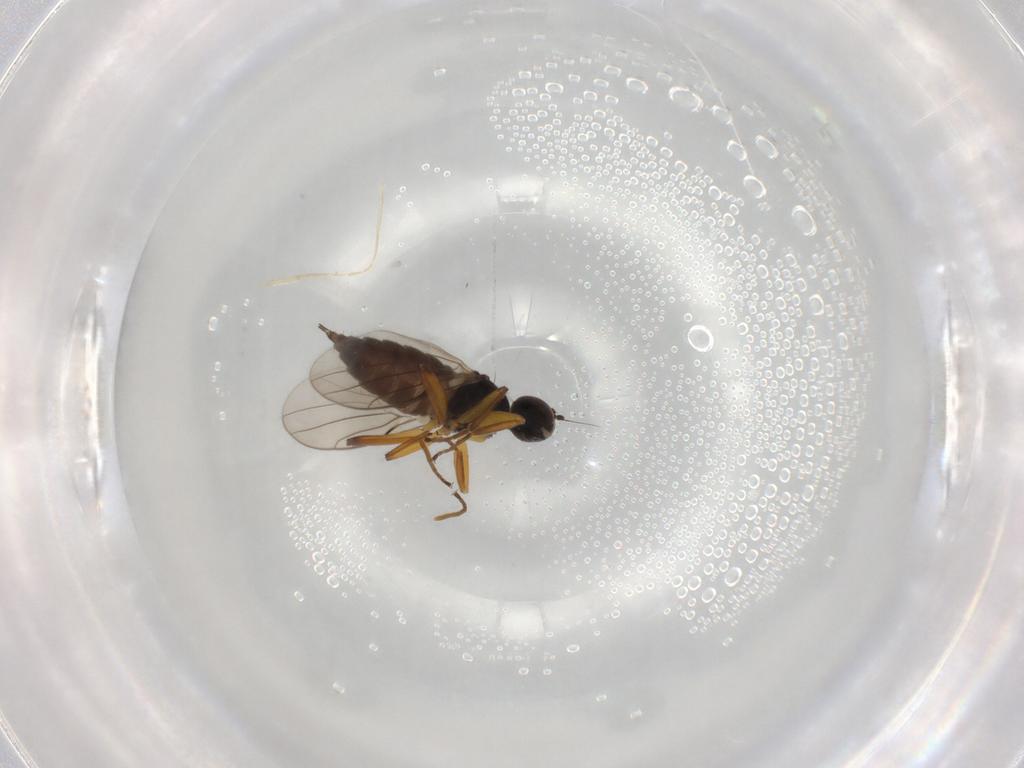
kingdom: Animalia
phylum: Arthropoda
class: Insecta
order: Diptera
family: Hybotidae
